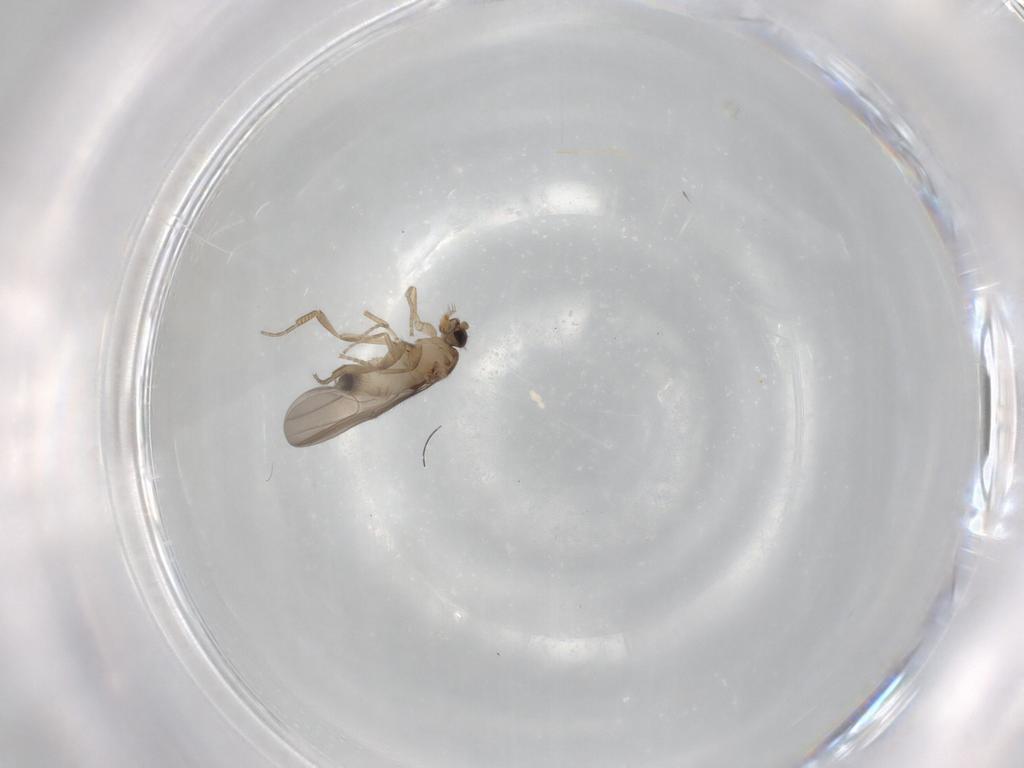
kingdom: Animalia
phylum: Arthropoda
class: Insecta
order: Diptera
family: Phoridae
